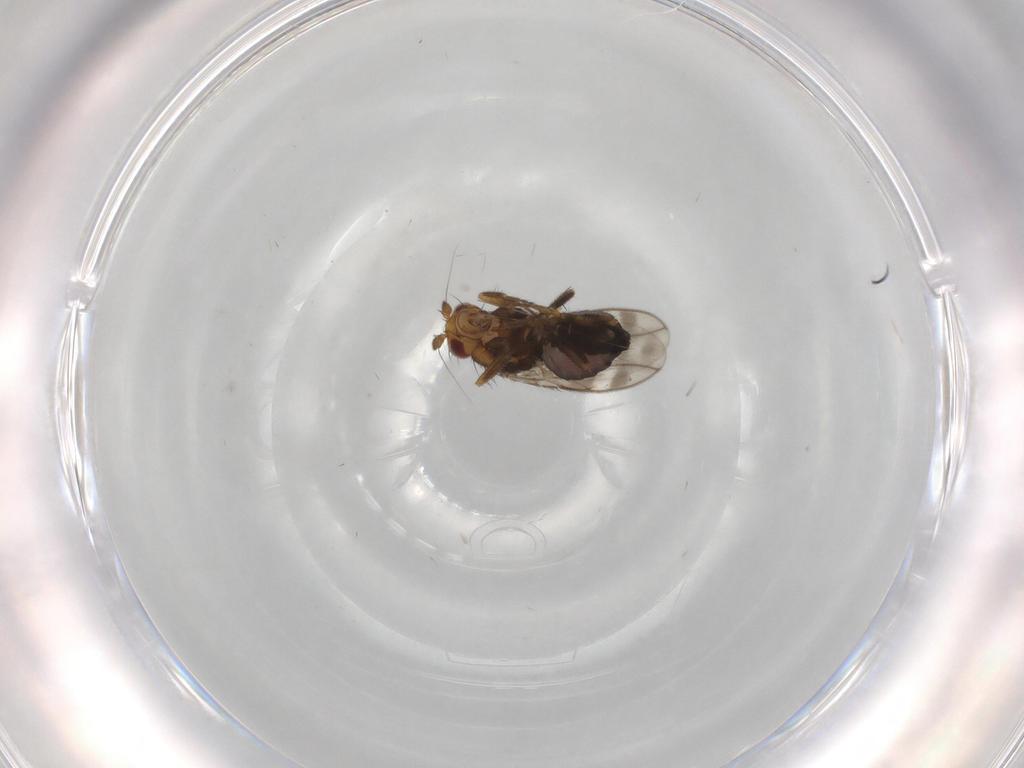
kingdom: Animalia
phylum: Arthropoda
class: Insecta
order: Diptera
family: Sphaeroceridae
